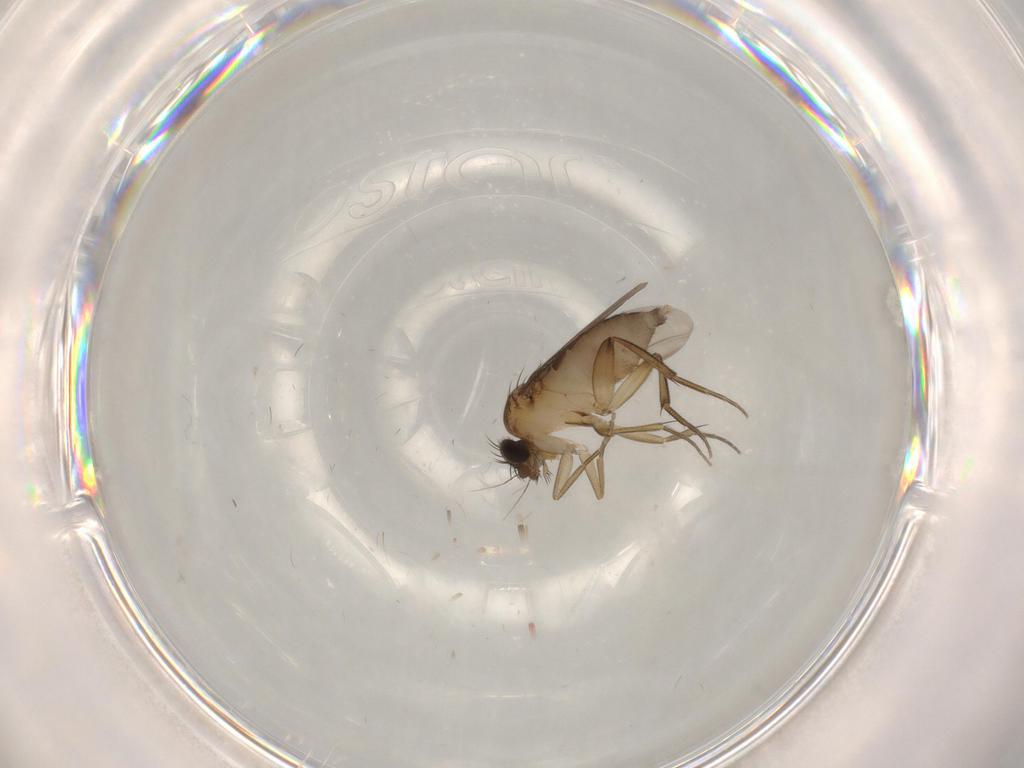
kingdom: Animalia
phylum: Arthropoda
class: Insecta
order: Diptera
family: Phoridae
